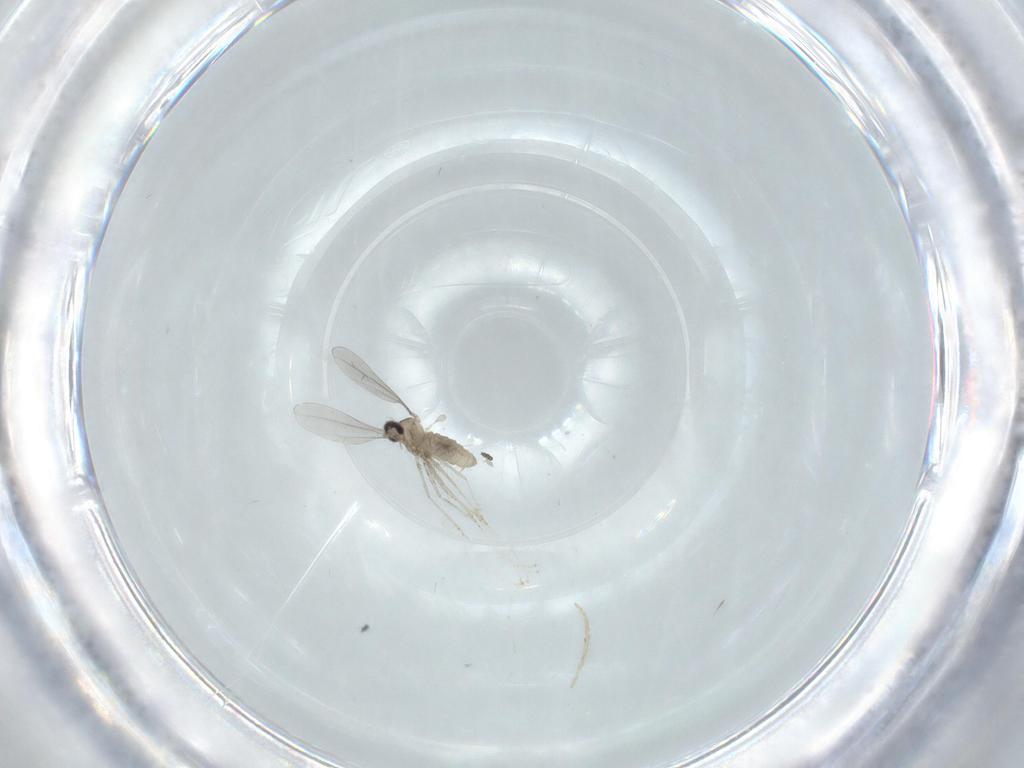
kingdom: Animalia
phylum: Arthropoda
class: Insecta
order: Diptera
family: Cecidomyiidae
